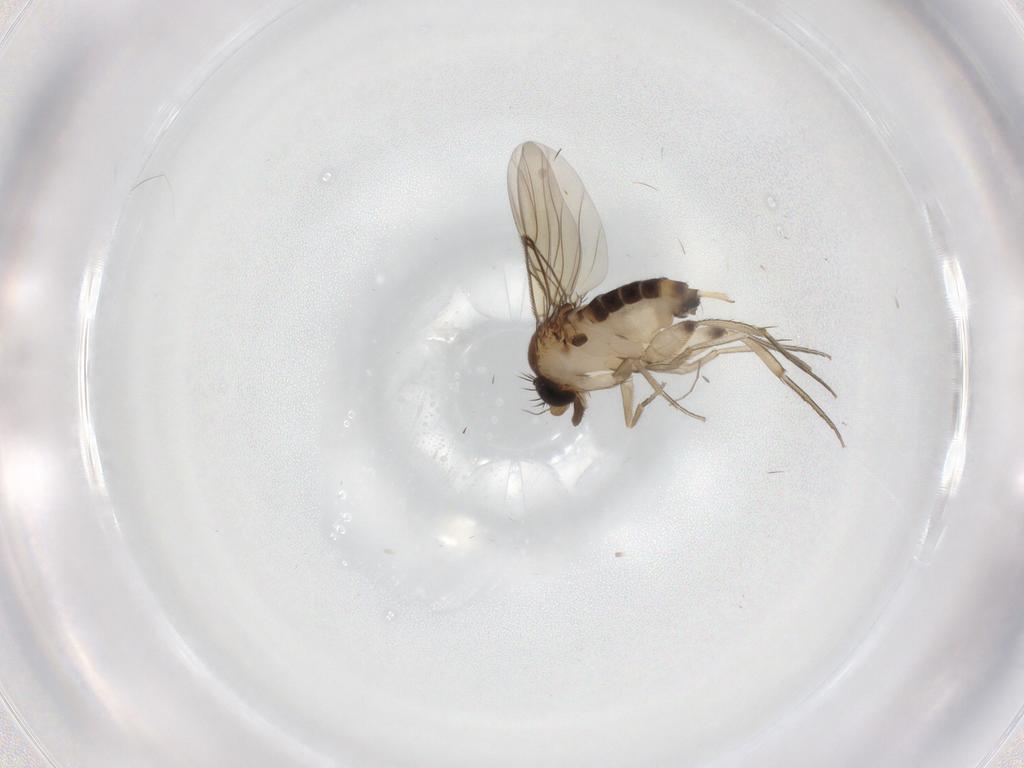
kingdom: Animalia
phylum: Arthropoda
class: Insecta
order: Diptera
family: Phoridae
